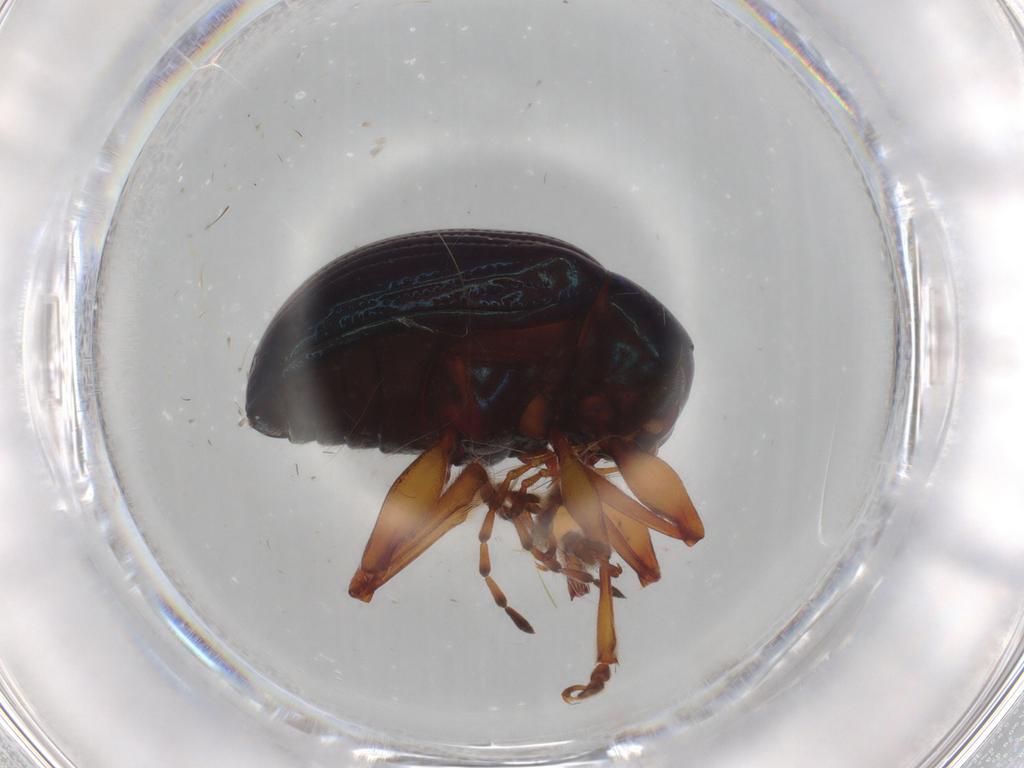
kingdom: Animalia
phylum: Arthropoda
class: Insecta
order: Coleoptera
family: Chrysomelidae
